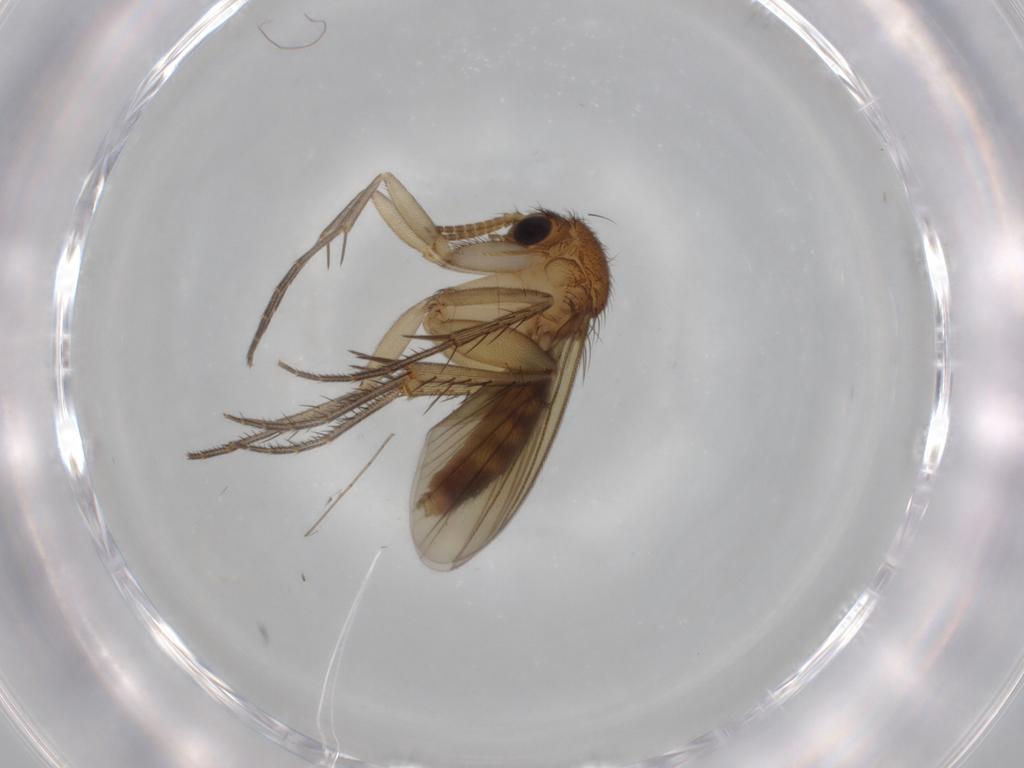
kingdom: Animalia
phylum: Arthropoda
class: Insecta
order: Diptera
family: Mycetophilidae
